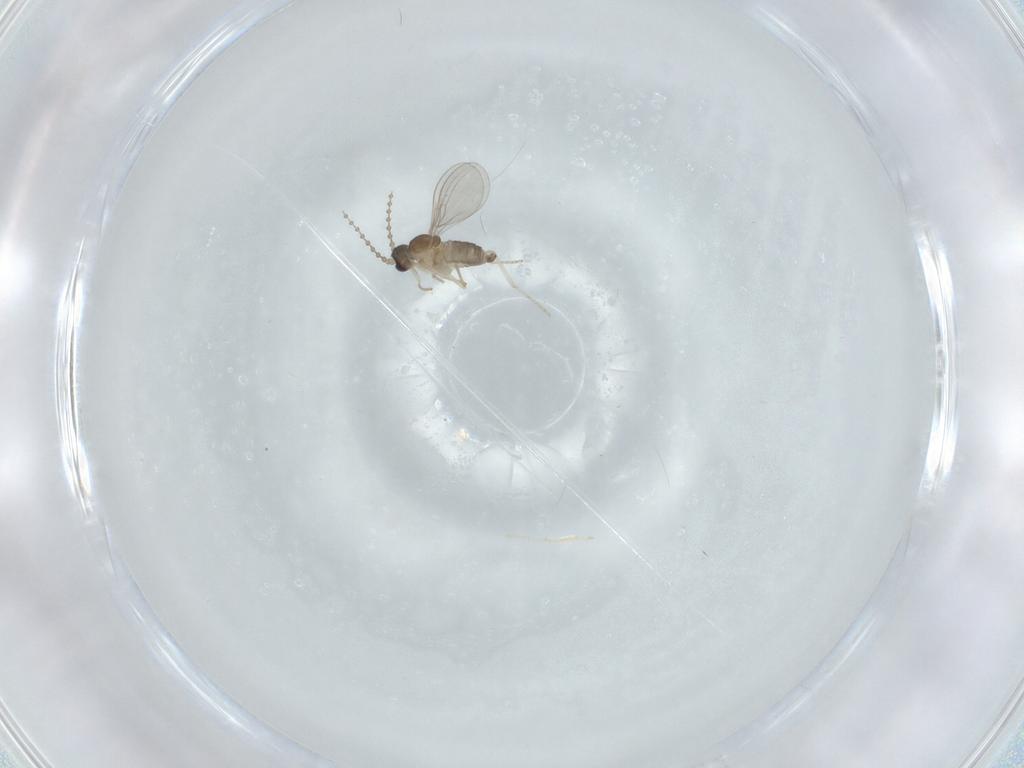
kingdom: Animalia
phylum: Arthropoda
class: Insecta
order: Diptera
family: Cecidomyiidae
